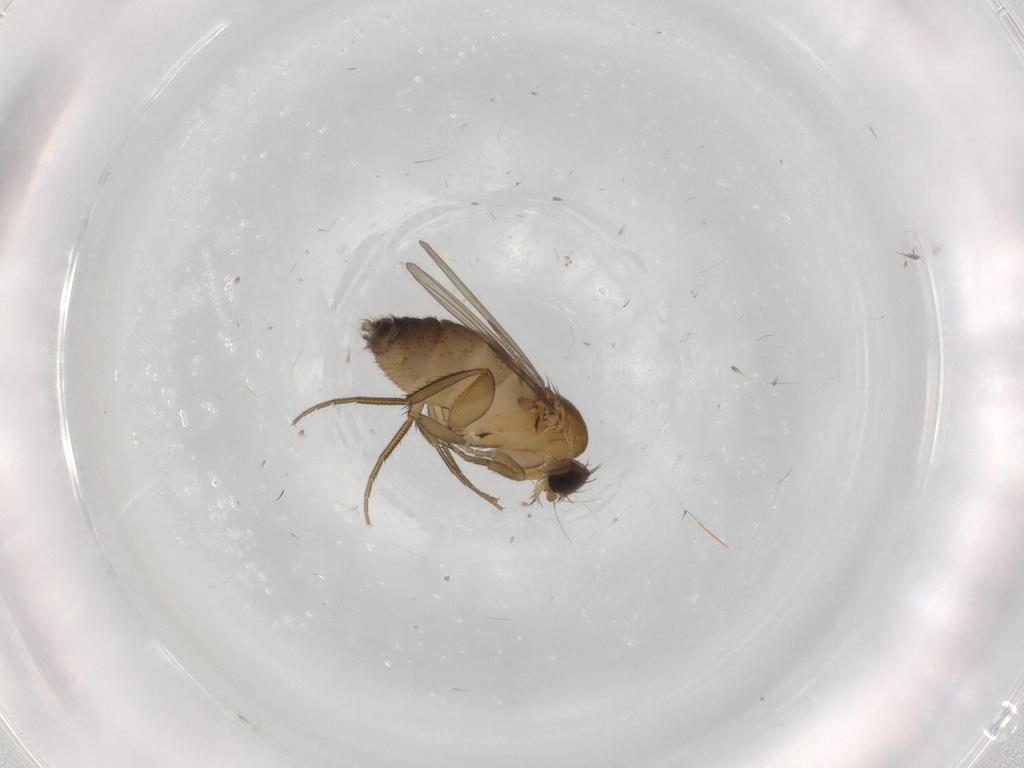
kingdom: Animalia
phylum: Arthropoda
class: Insecta
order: Diptera
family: Phoridae
